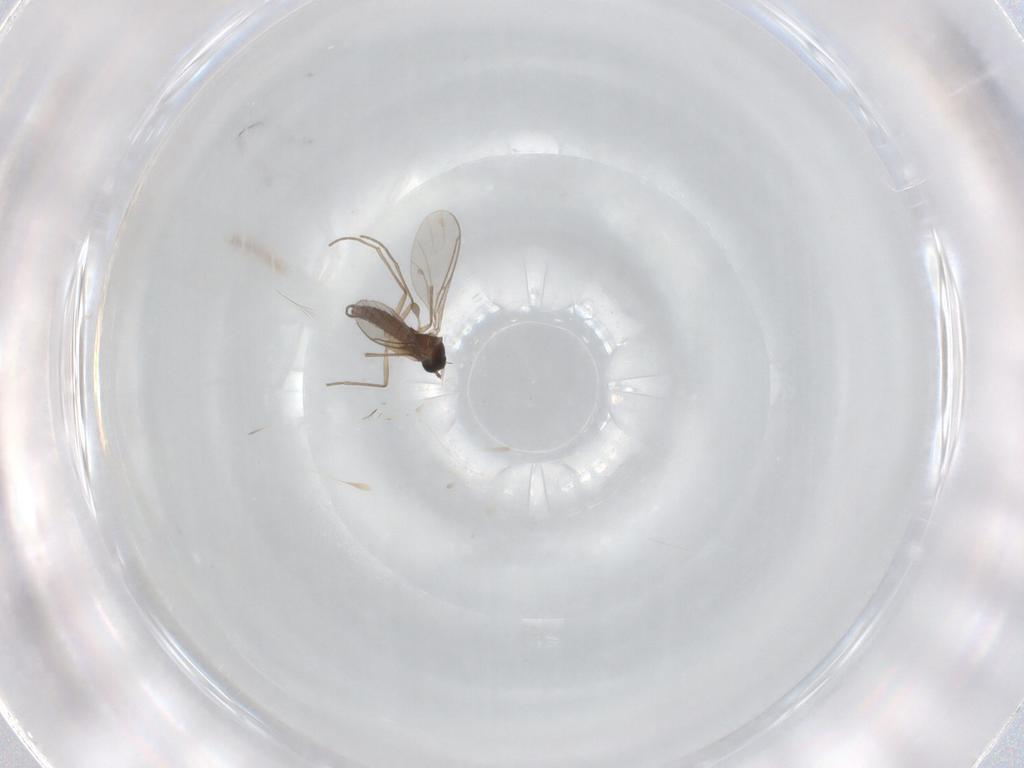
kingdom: Animalia
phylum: Arthropoda
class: Insecta
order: Diptera
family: Sciaridae
